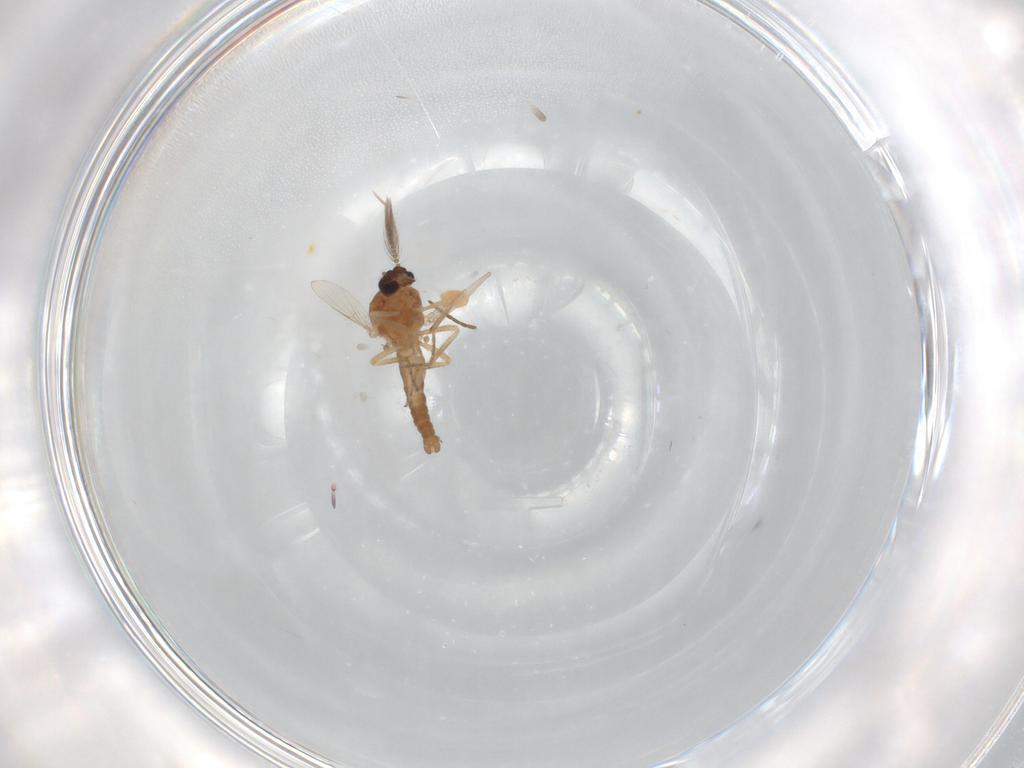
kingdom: Animalia
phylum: Arthropoda
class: Insecta
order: Diptera
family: Ceratopogonidae
